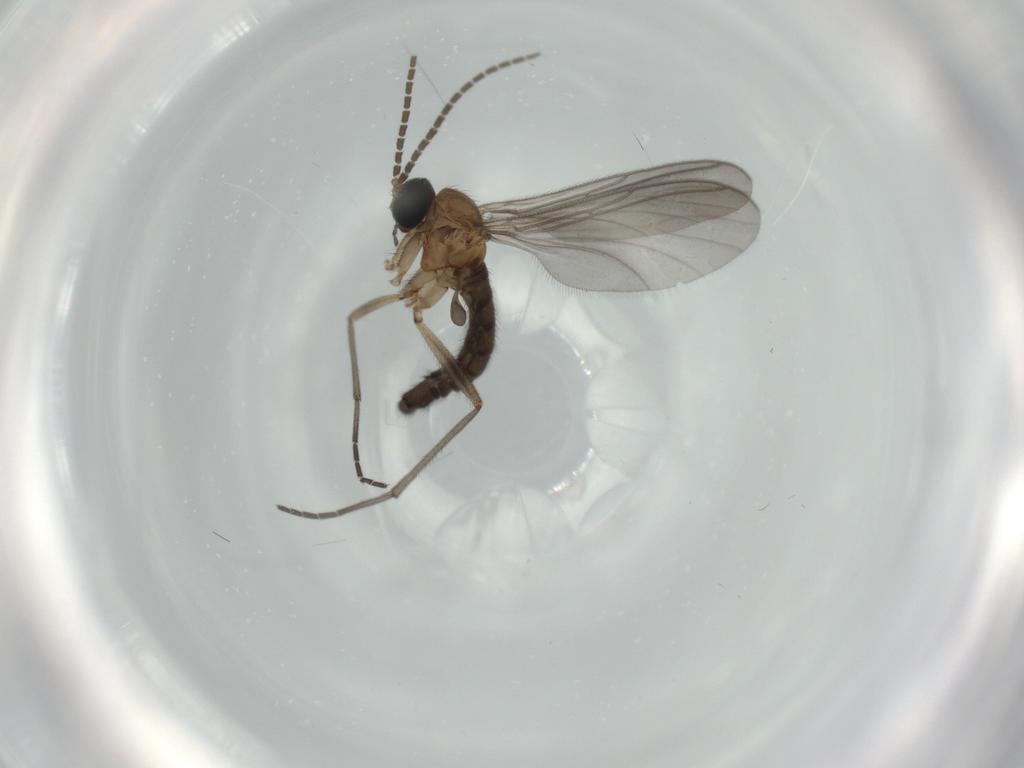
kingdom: Animalia
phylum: Arthropoda
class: Insecta
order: Diptera
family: Sciaridae
